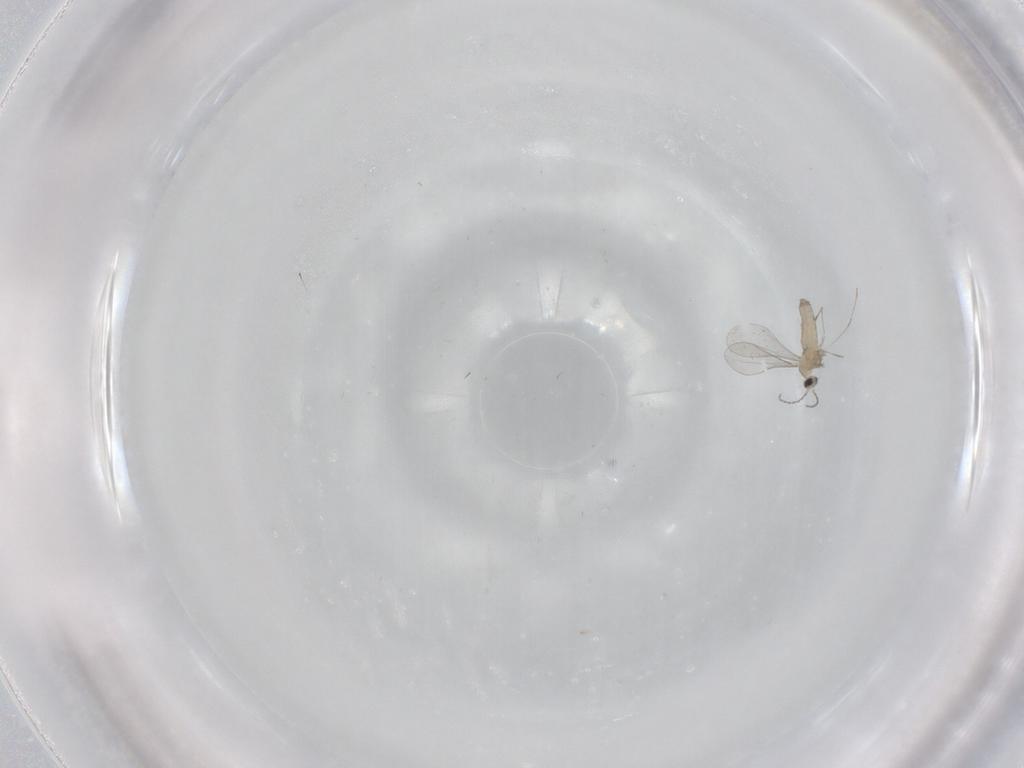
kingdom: Animalia
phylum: Arthropoda
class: Insecta
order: Diptera
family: Cecidomyiidae
